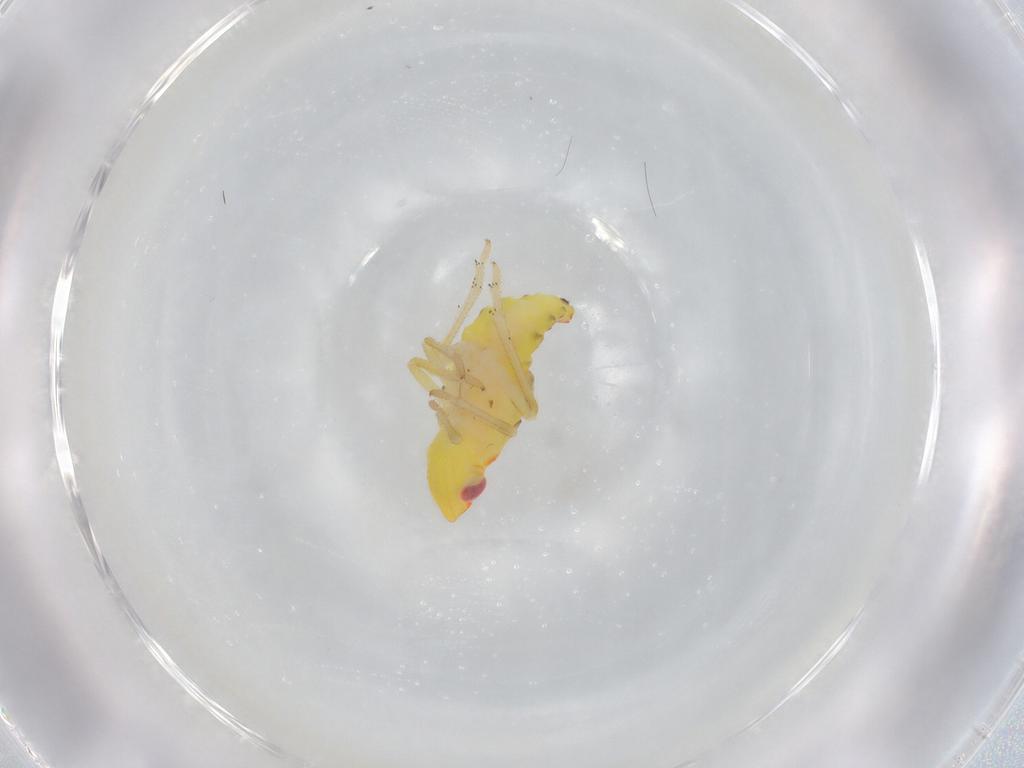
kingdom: Animalia
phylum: Arthropoda
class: Insecta
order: Hemiptera
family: Tropiduchidae
